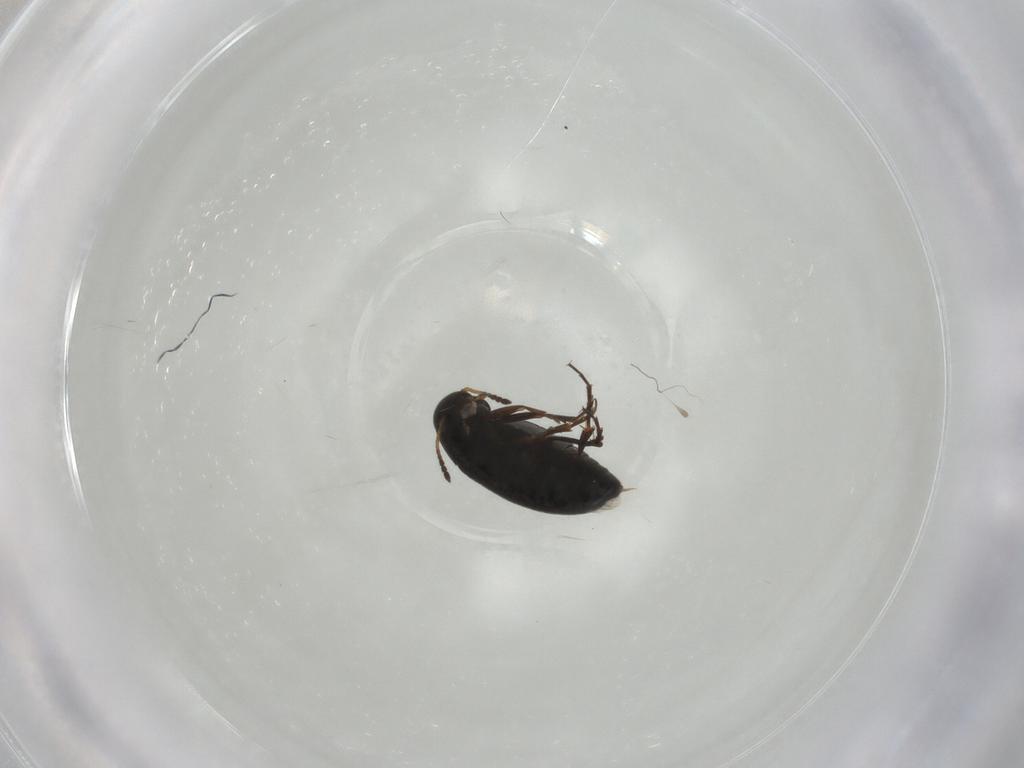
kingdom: Animalia
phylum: Arthropoda
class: Insecta
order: Coleoptera
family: Scraptiidae
